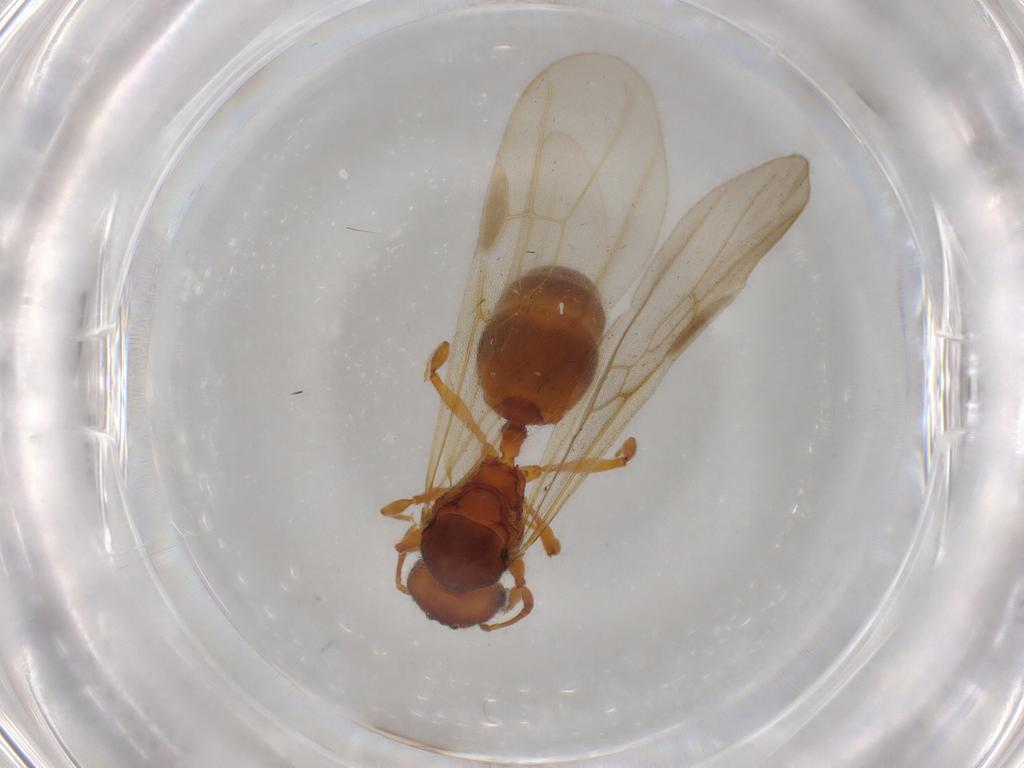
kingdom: Animalia
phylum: Arthropoda
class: Insecta
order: Hymenoptera
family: Formicidae
